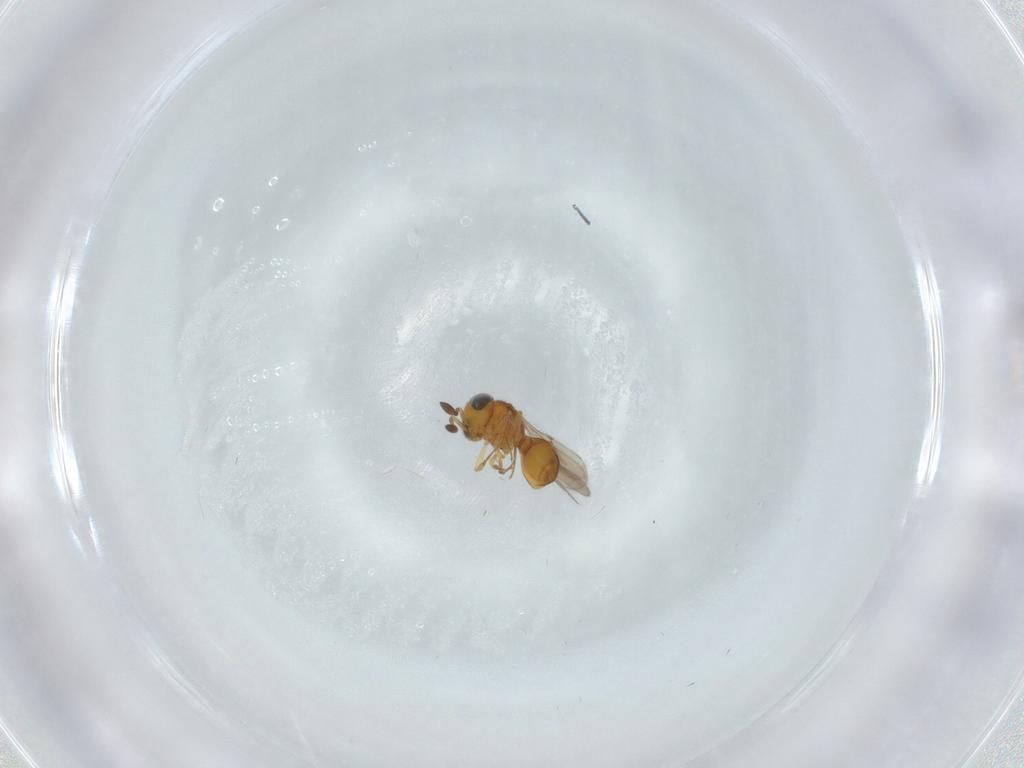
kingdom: Animalia
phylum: Arthropoda
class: Insecta
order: Hymenoptera
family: Scelionidae
